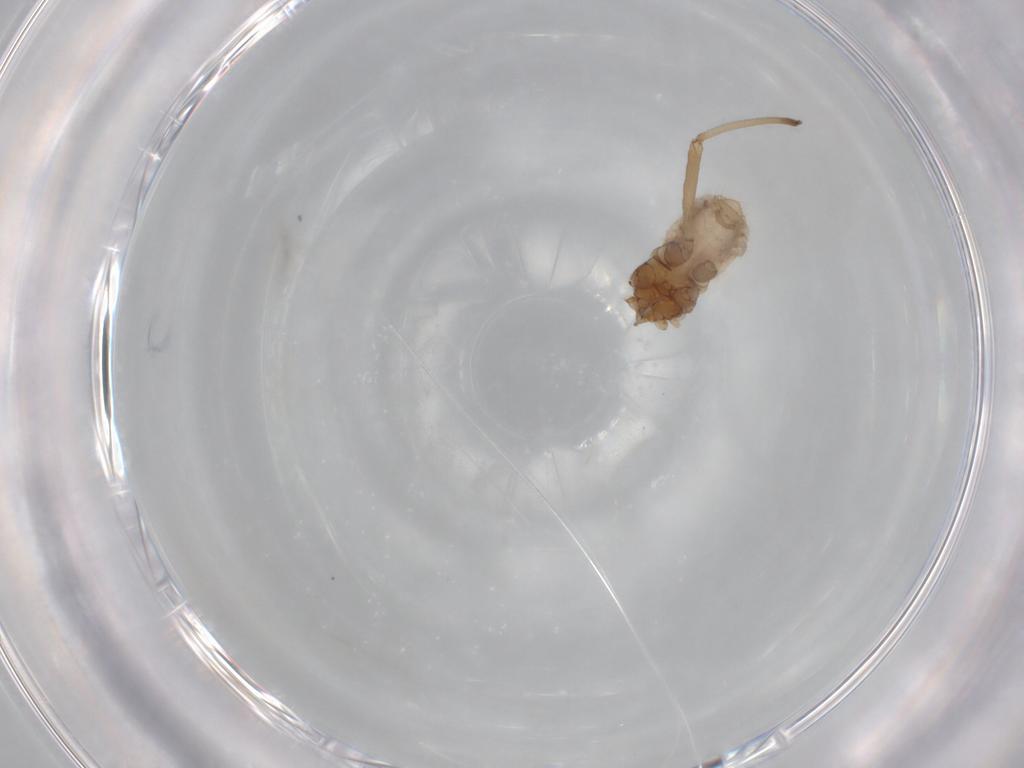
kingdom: Animalia
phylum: Arthropoda
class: Insecta
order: Hemiptera
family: Aphididae
